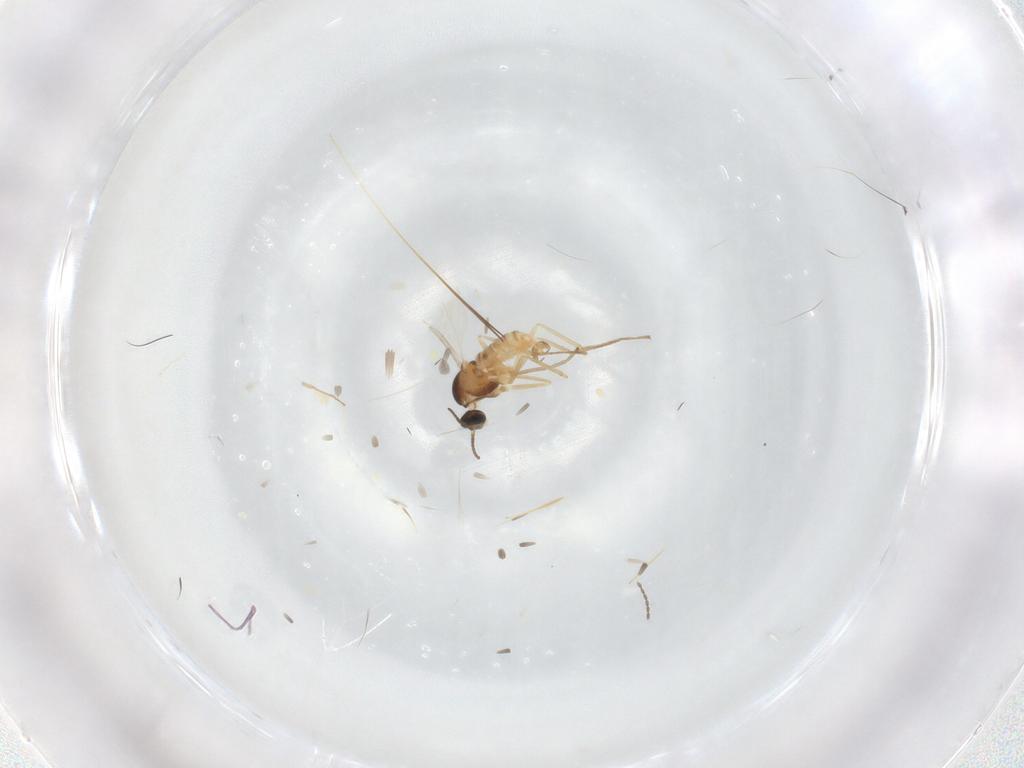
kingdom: Animalia
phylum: Arthropoda
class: Insecta
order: Diptera
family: Cecidomyiidae
